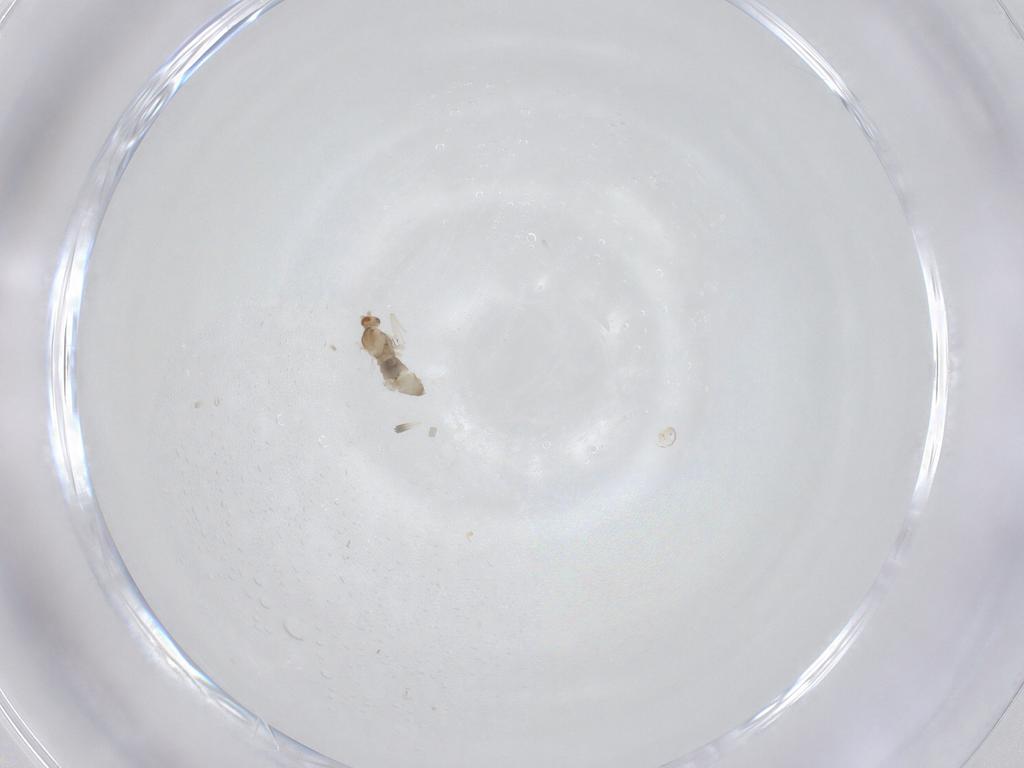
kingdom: Animalia
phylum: Arthropoda
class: Insecta
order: Diptera
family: Cecidomyiidae
